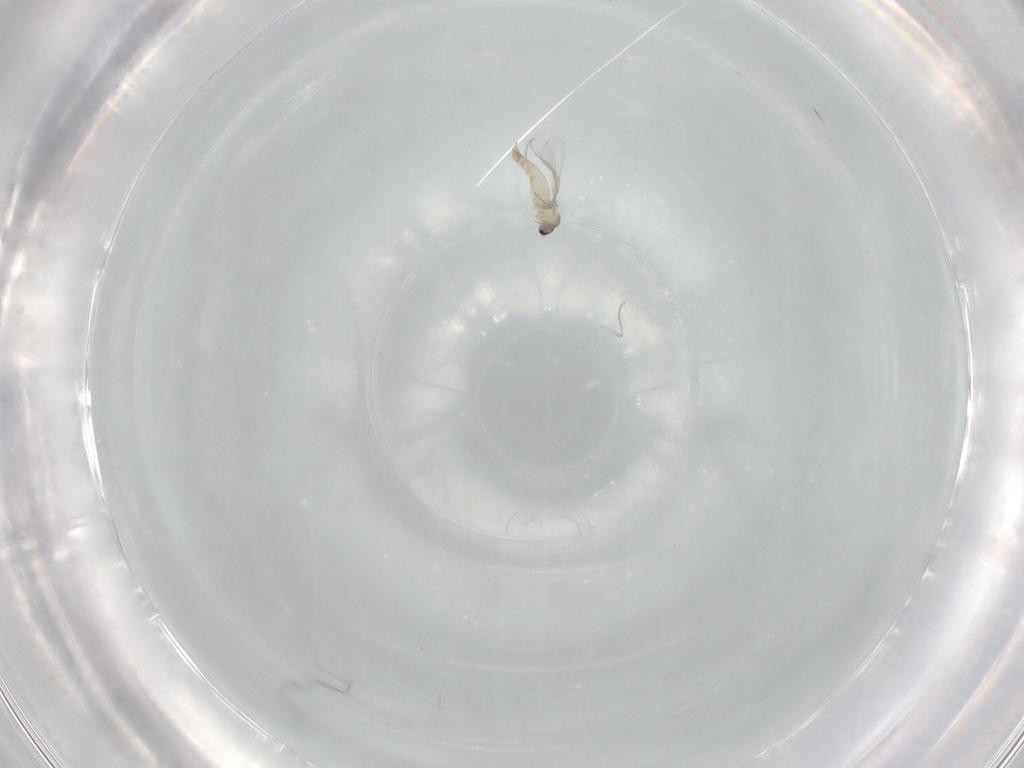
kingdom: Animalia
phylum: Arthropoda
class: Insecta
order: Diptera
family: Cecidomyiidae
